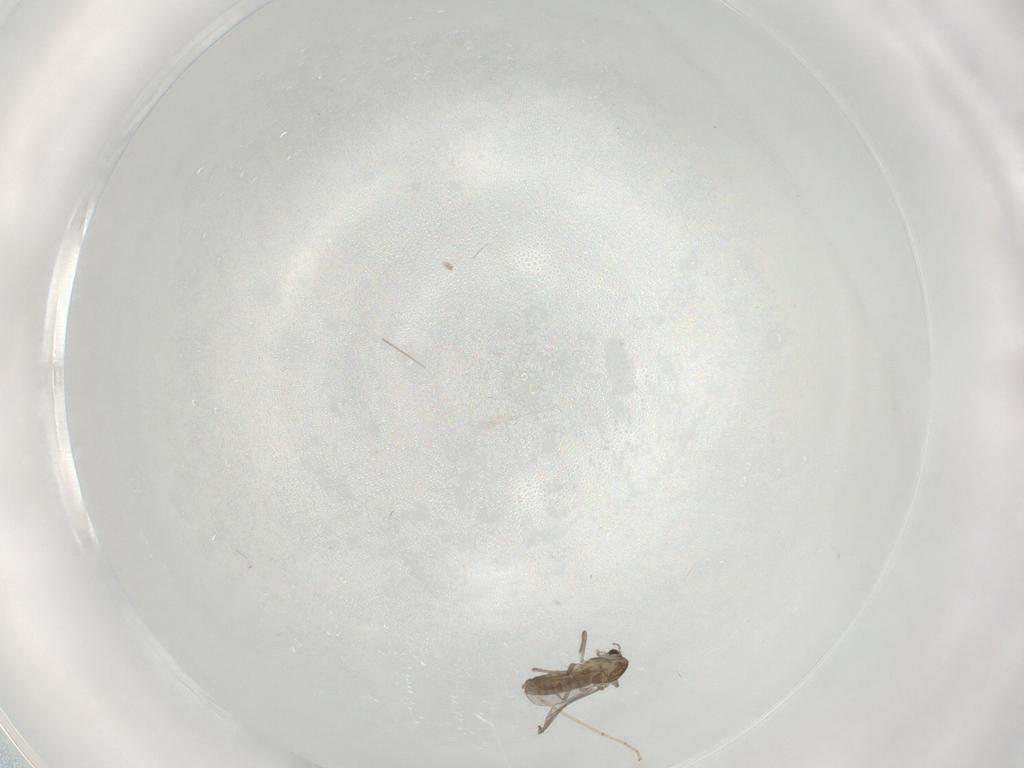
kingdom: Animalia
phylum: Arthropoda
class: Insecta
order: Diptera
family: Chironomidae
